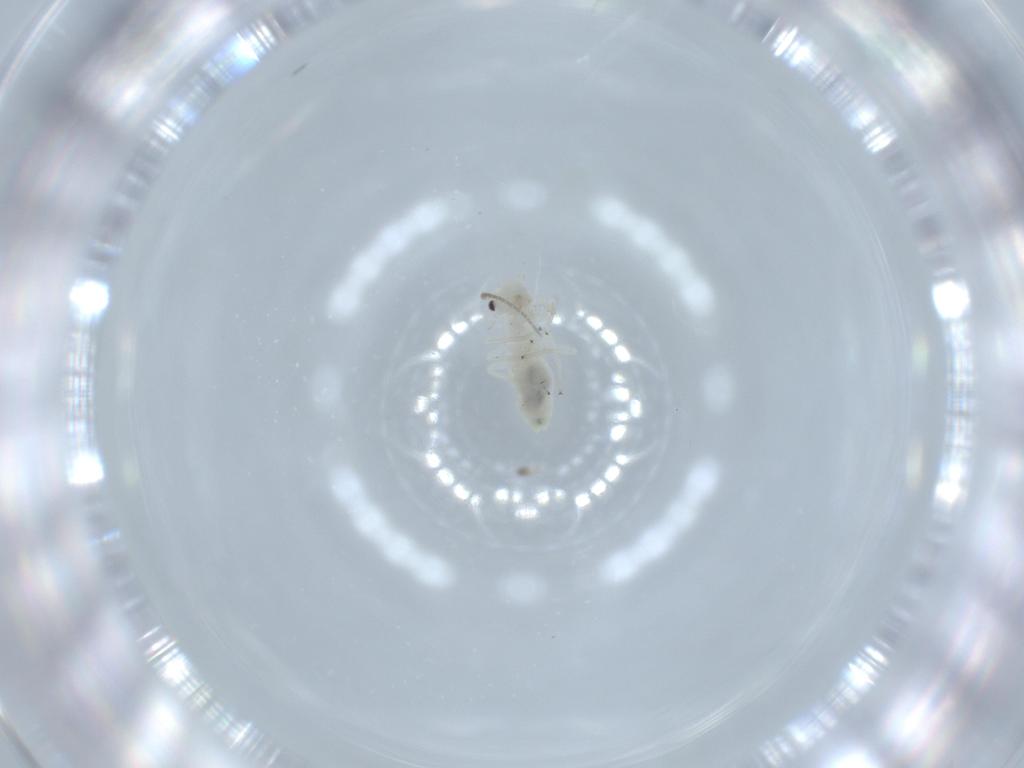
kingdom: Animalia
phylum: Arthropoda
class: Insecta
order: Psocodea
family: Caeciliusidae
